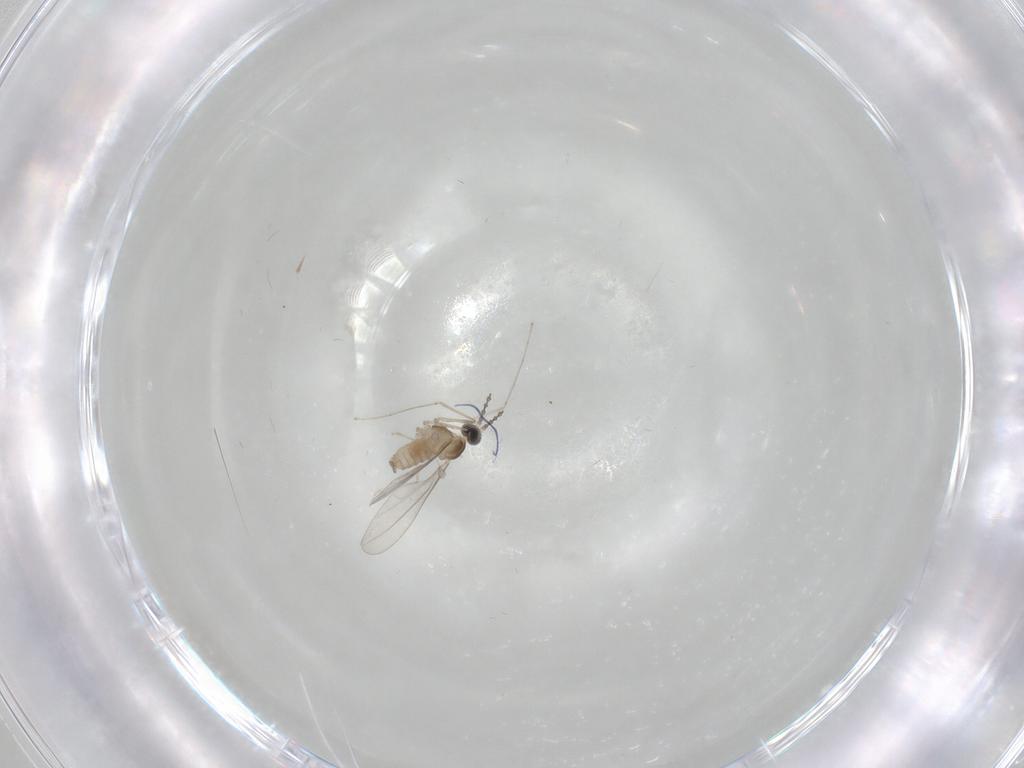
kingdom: Animalia
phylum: Arthropoda
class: Insecta
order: Diptera
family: Cecidomyiidae
